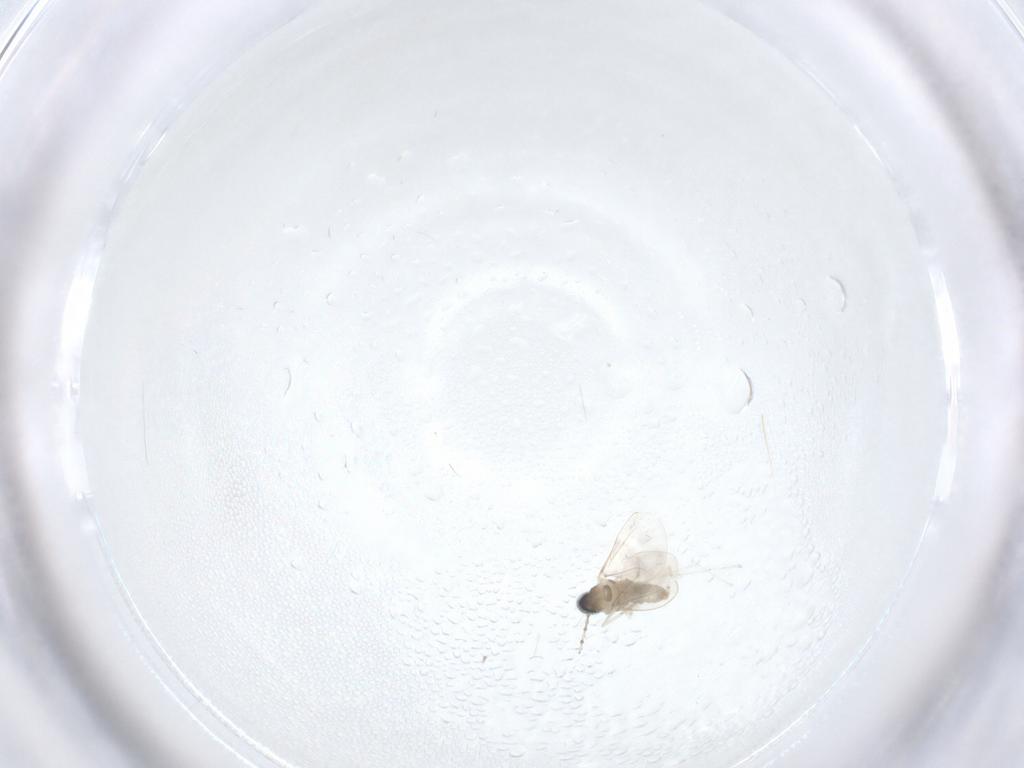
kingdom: Animalia
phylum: Arthropoda
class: Insecta
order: Diptera
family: Cecidomyiidae
